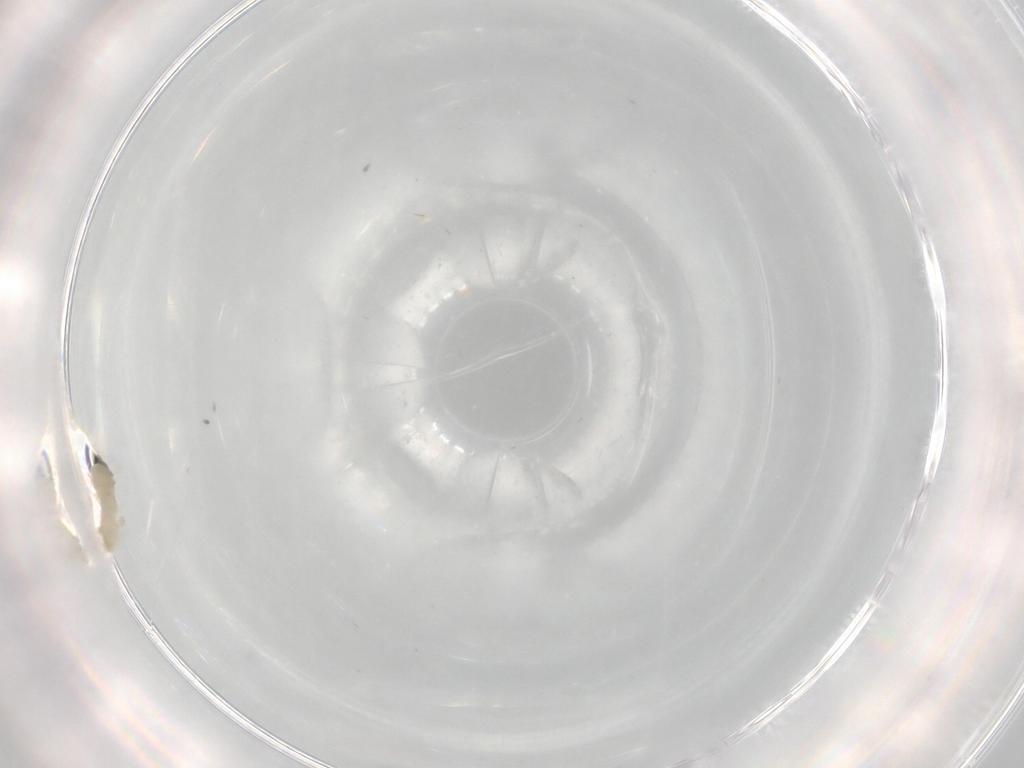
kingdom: Animalia
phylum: Arthropoda
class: Insecta
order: Diptera
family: Cecidomyiidae
